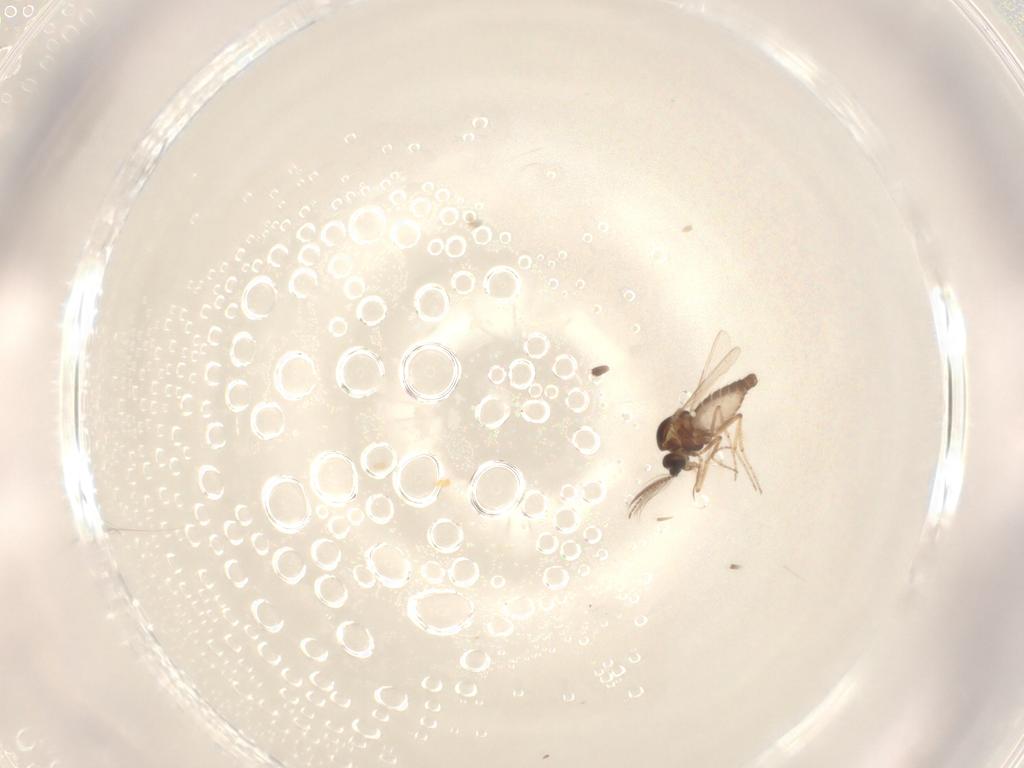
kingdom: Animalia
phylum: Arthropoda
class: Insecta
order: Diptera
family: Ceratopogonidae
